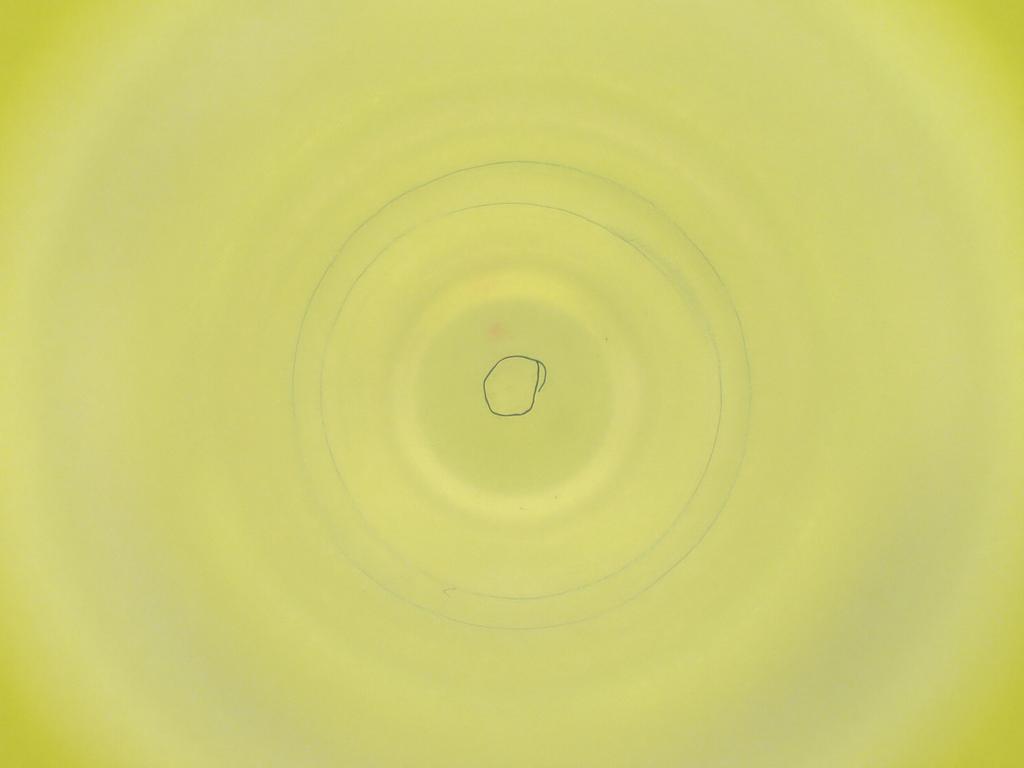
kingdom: Animalia
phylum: Arthropoda
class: Insecta
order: Diptera
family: Cecidomyiidae
